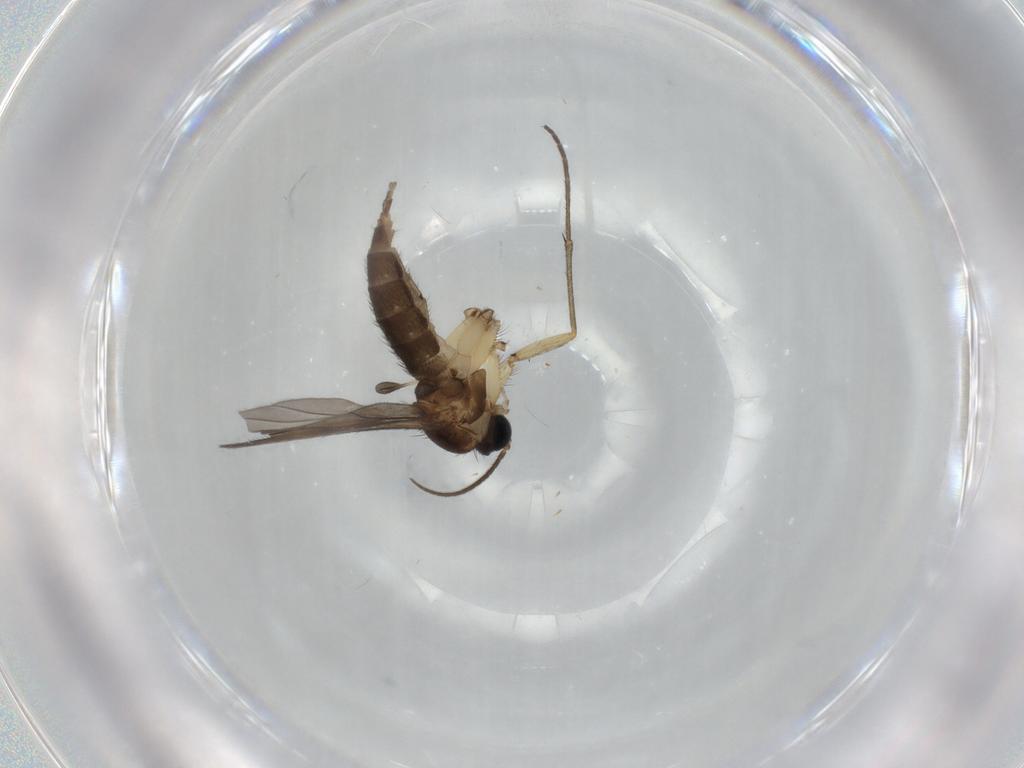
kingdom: Animalia
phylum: Arthropoda
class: Insecta
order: Diptera
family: Sciaridae
